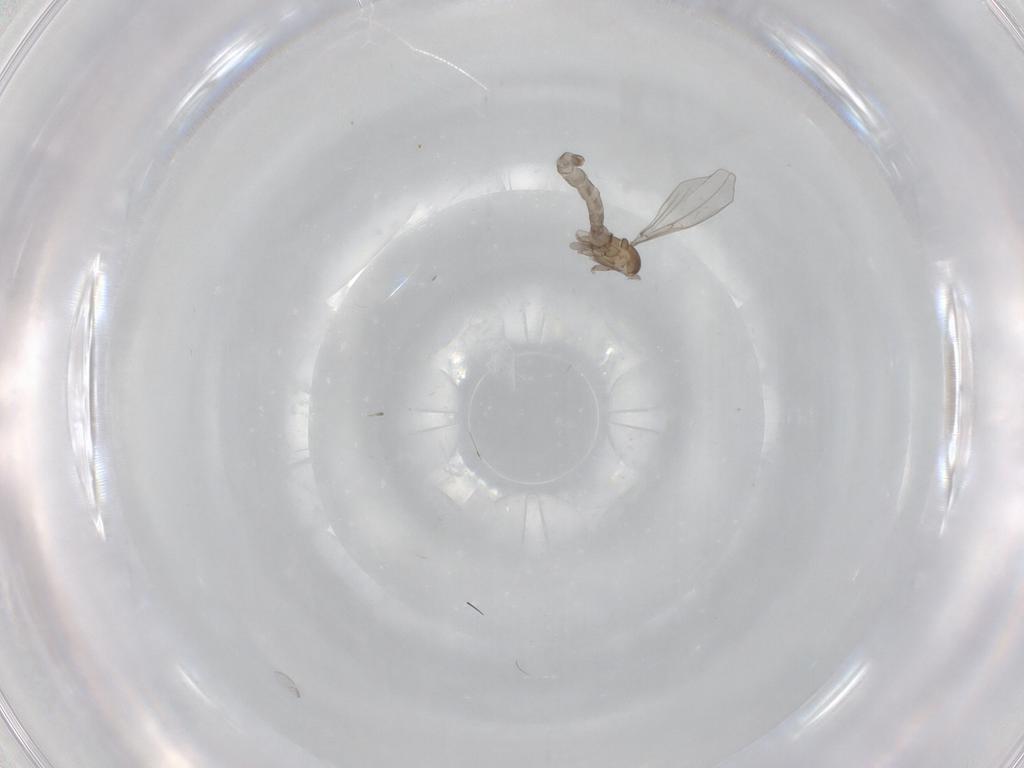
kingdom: Animalia
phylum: Arthropoda
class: Insecta
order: Diptera
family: Cecidomyiidae
